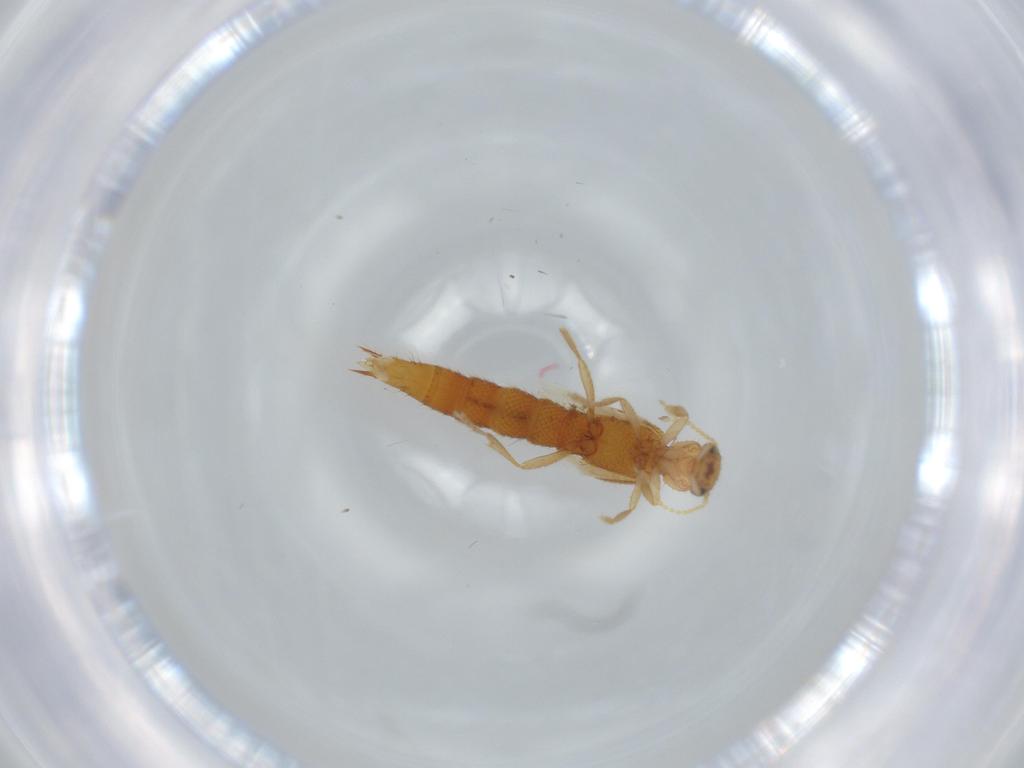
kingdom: Animalia
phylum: Arthropoda
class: Insecta
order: Coleoptera
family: Staphylinidae
